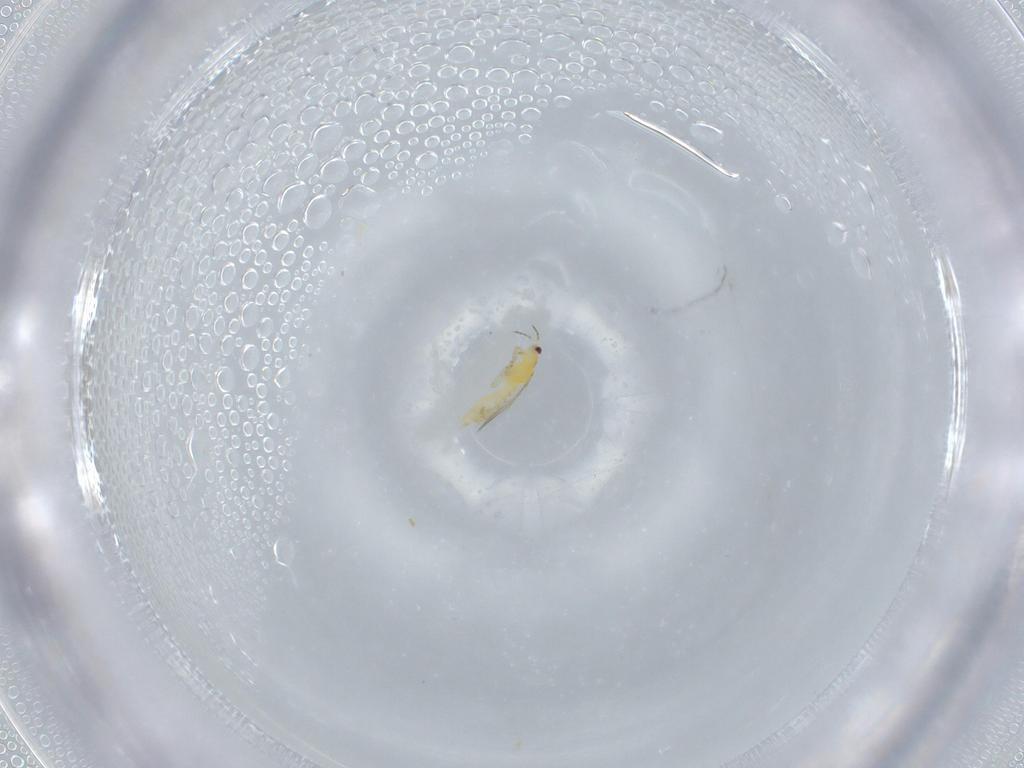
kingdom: Animalia
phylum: Arthropoda
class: Insecta
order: Thysanoptera
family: Thripidae
